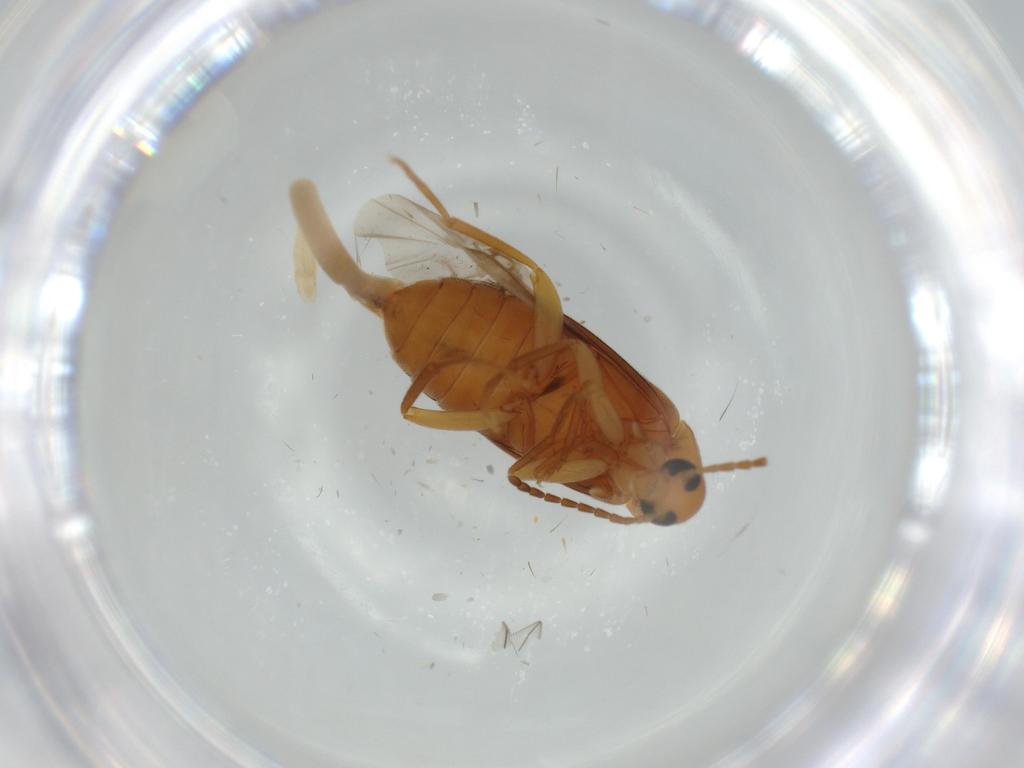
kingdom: Animalia
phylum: Arthropoda
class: Insecta
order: Coleoptera
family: Scraptiidae
